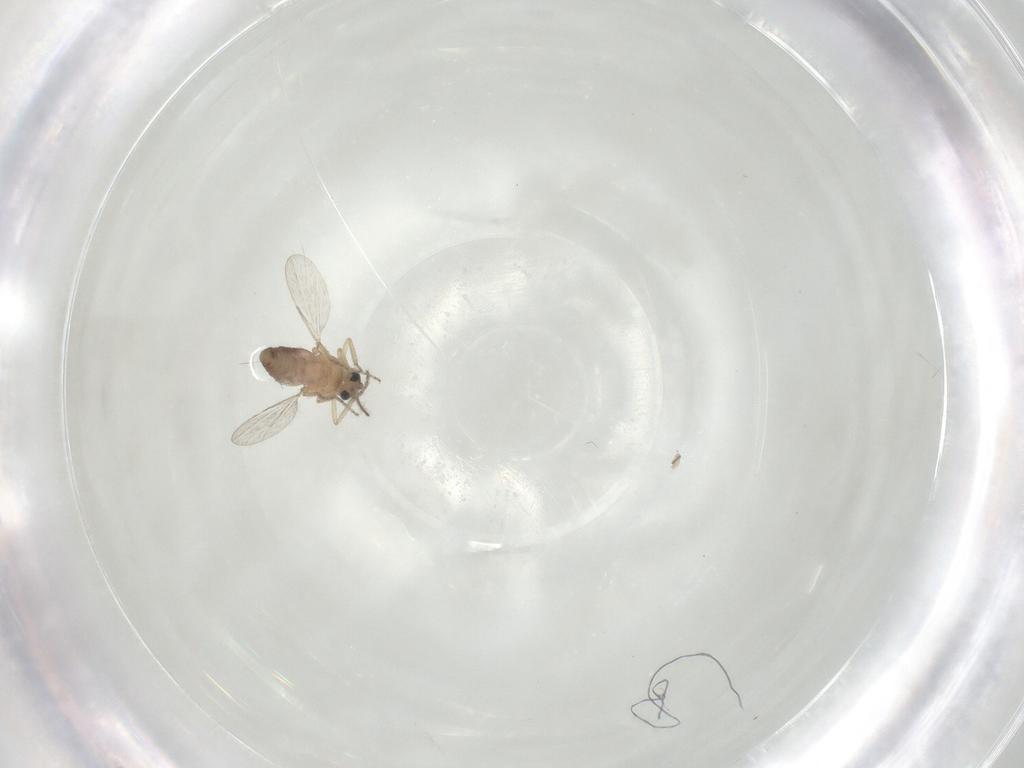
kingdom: Animalia
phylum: Arthropoda
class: Insecta
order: Diptera
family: Ceratopogonidae
